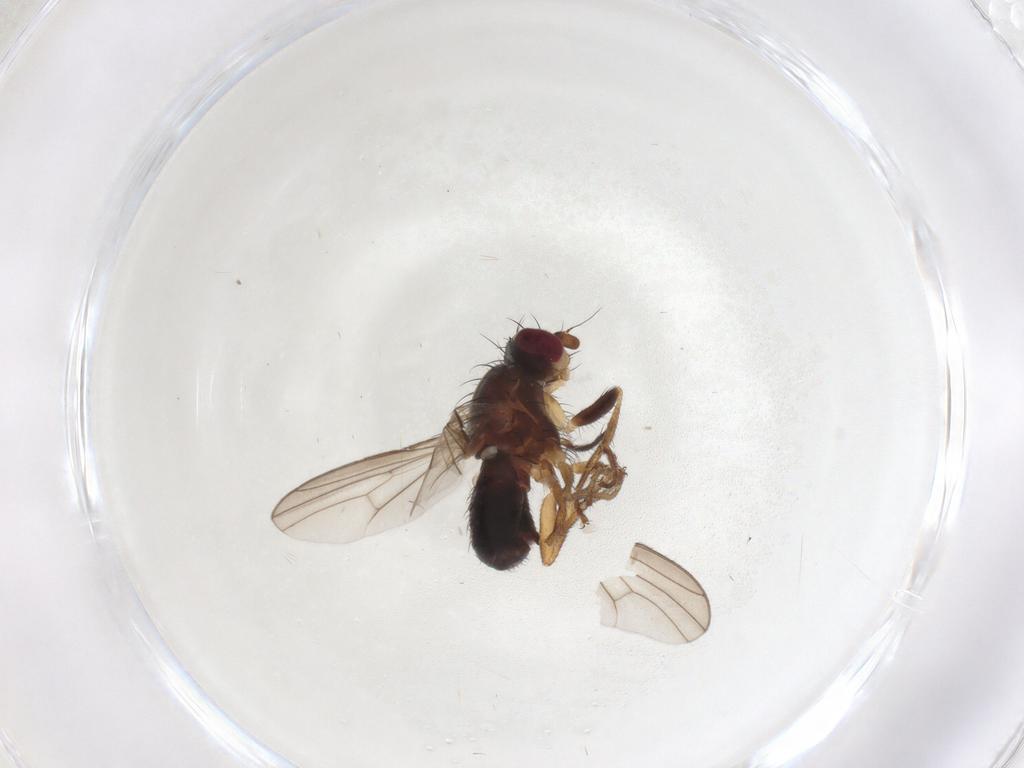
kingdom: Animalia
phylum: Arthropoda
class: Insecta
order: Diptera
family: Heleomyzidae
